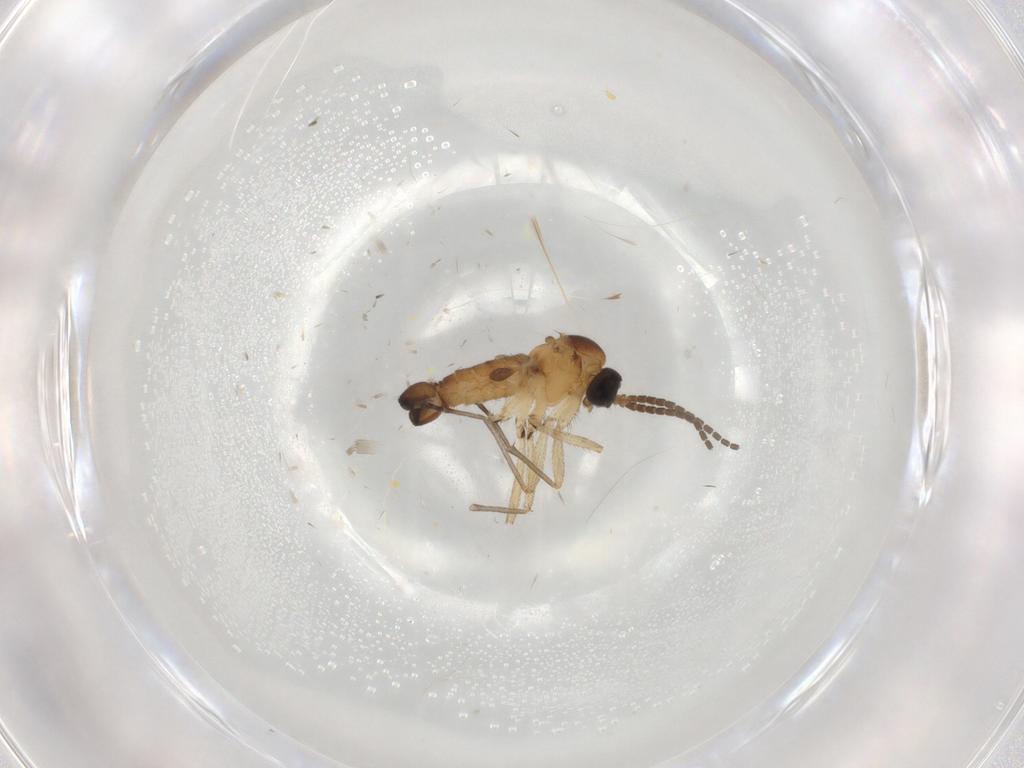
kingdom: Animalia
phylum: Arthropoda
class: Insecta
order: Diptera
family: Sciaridae
